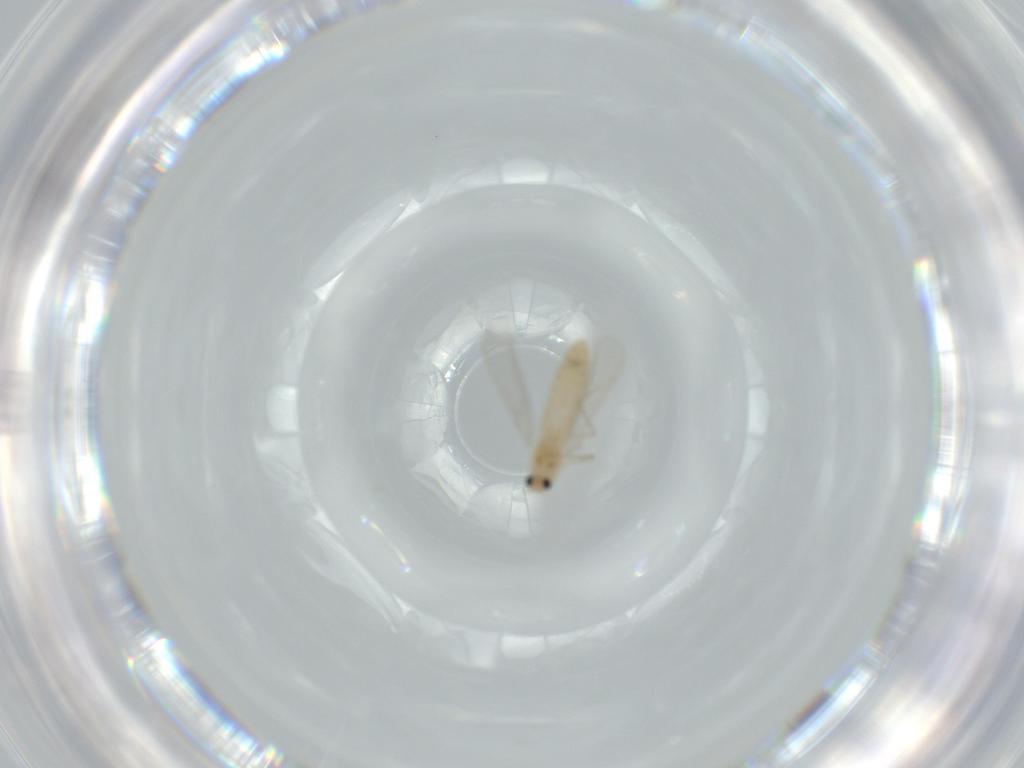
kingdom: Animalia
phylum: Arthropoda
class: Insecta
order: Diptera
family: Chironomidae
